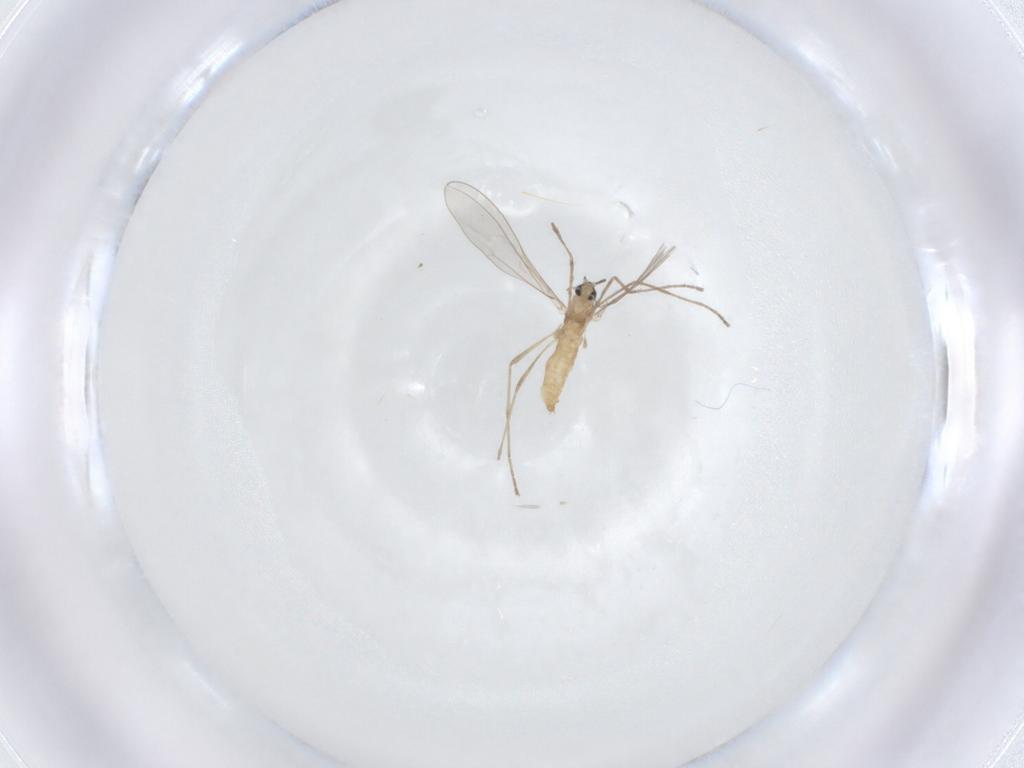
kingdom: Animalia
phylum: Arthropoda
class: Insecta
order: Diptera
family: Cecidomyiidae
